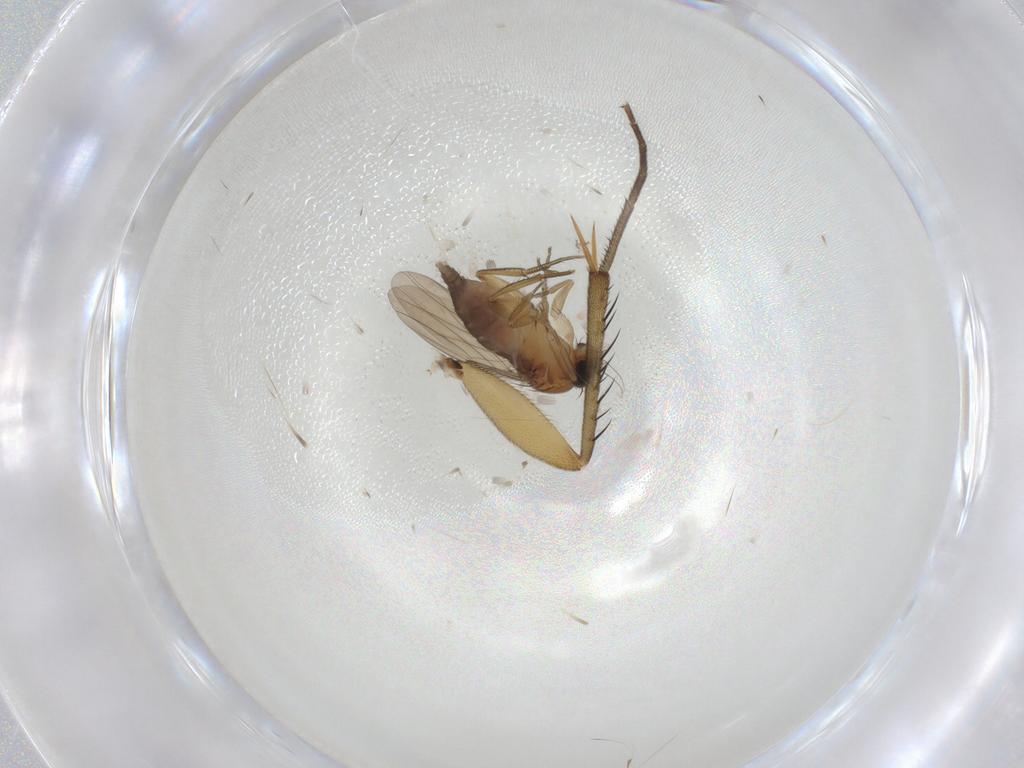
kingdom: Animalia
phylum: Arthropoda
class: Insecta
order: Diptera
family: Phoridae
